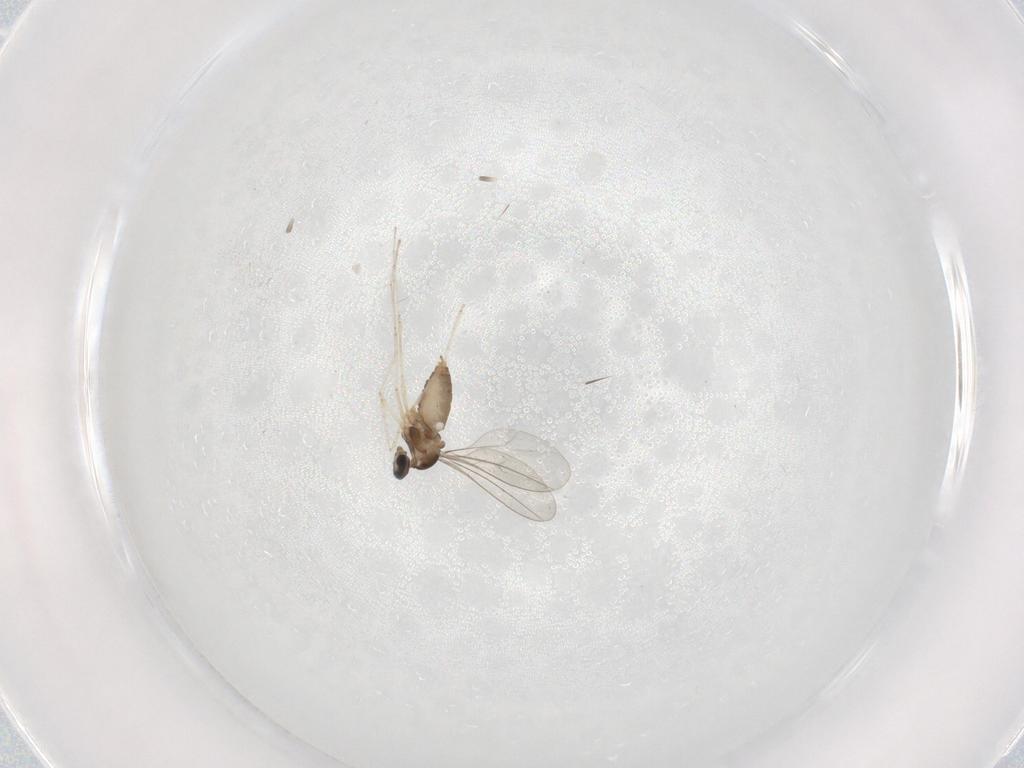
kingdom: Animalia
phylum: Arthropoda
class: Insecta
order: Diptera
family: Cecidomyiidae
